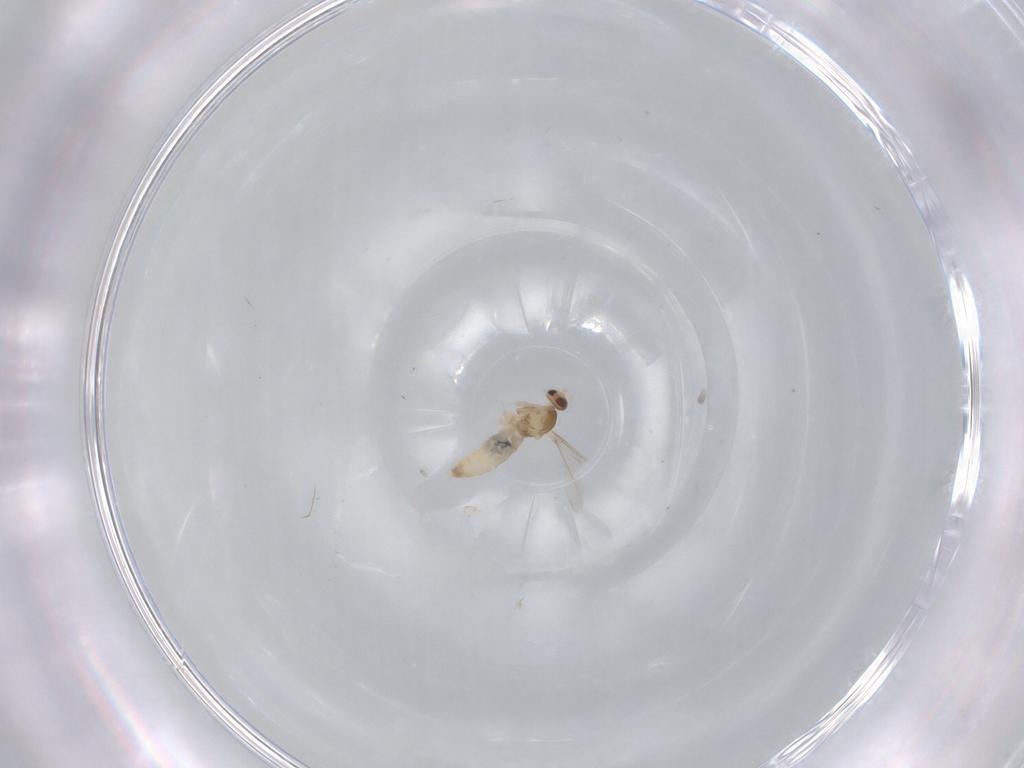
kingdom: Animalia
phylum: Arthropoda
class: Insecta
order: Diptera
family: Cecidomyiidae
